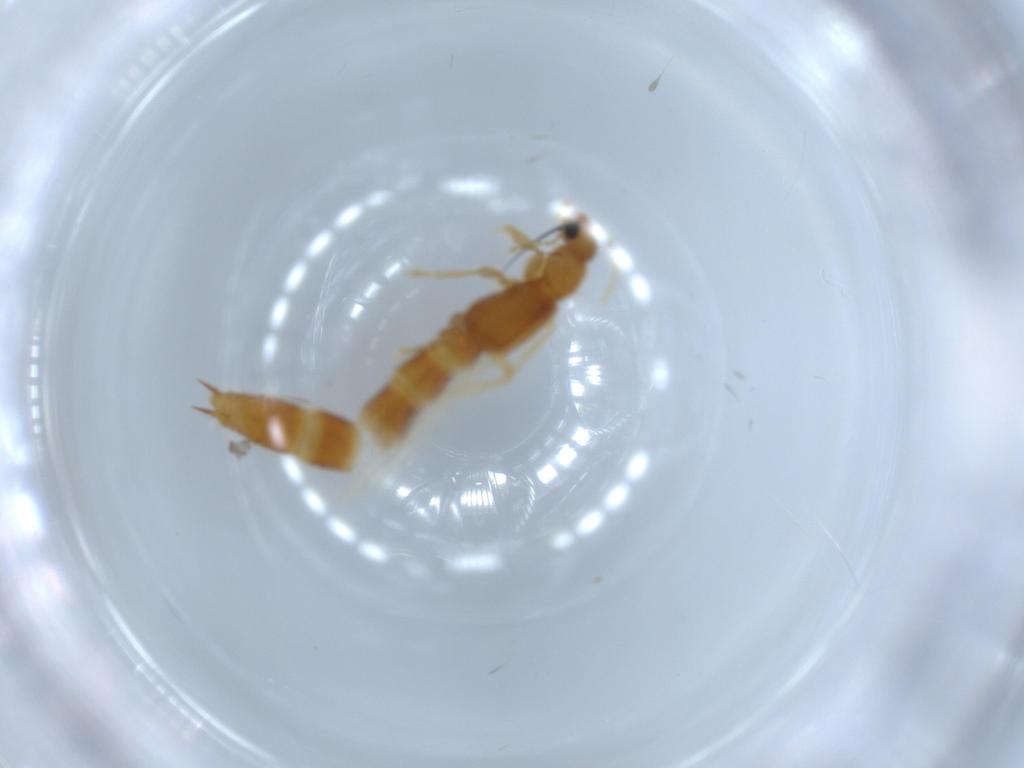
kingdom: Animalia
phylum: Arthropoda
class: Insecta
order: Coleoptera
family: Staphylinidae
